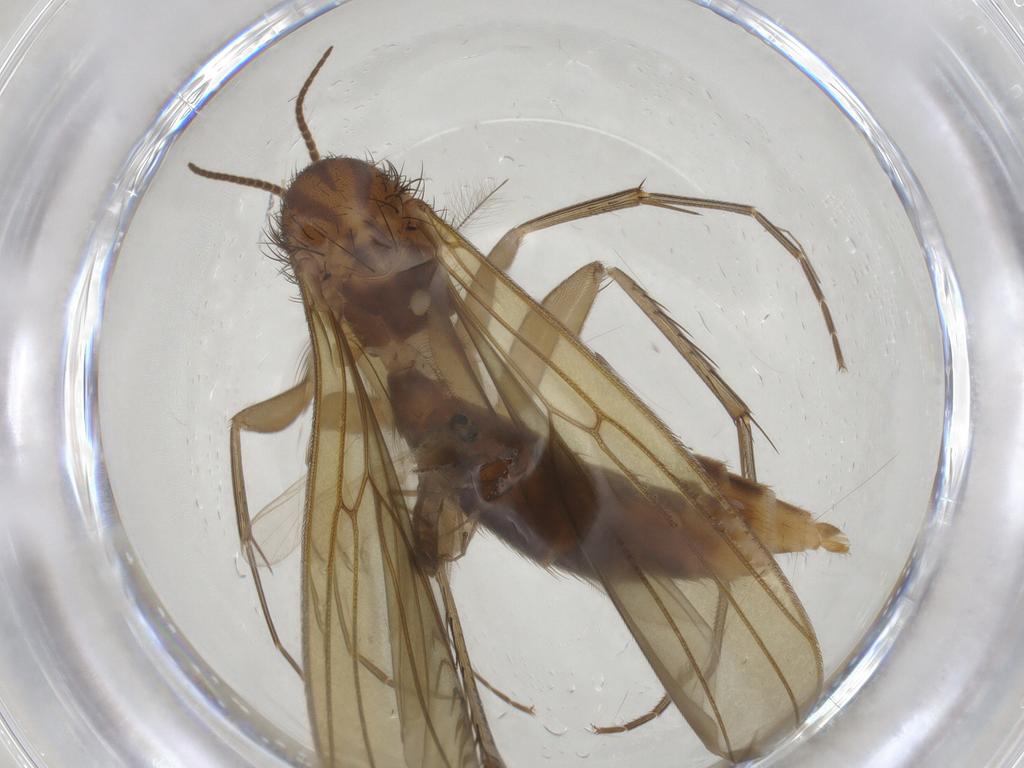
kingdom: Animalia
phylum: Arthropoda
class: Insecta
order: Diptera
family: Chironomidae
